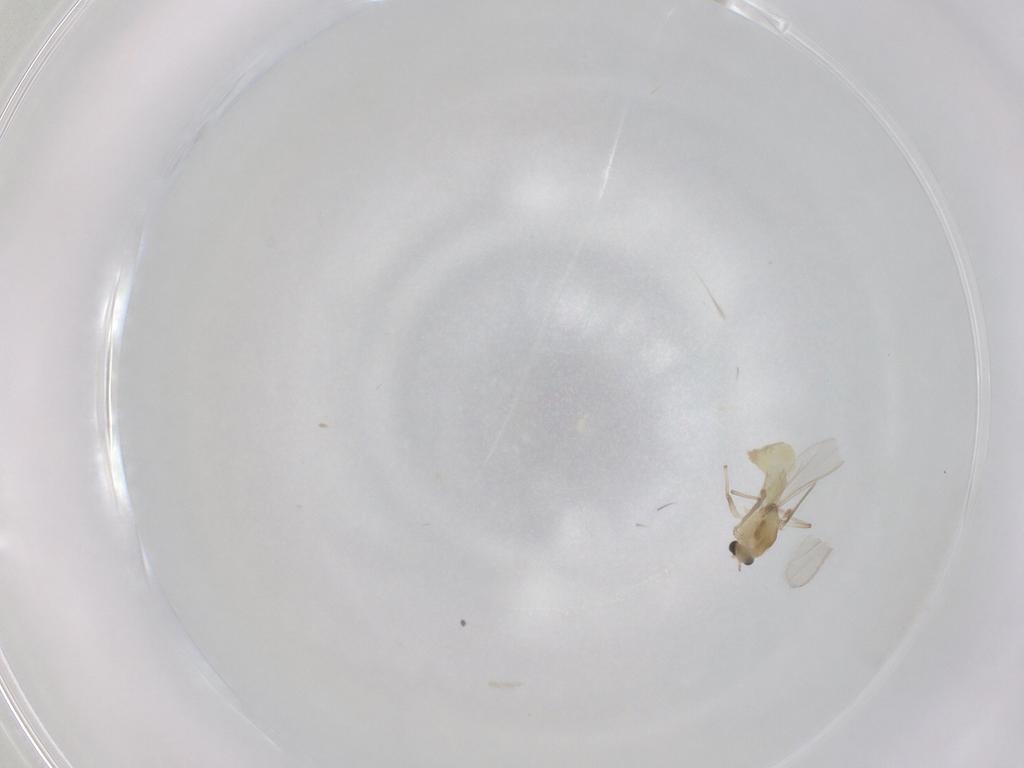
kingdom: Animalia
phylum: Arthropoda
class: Insecta
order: Diptera
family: Chironomidae
